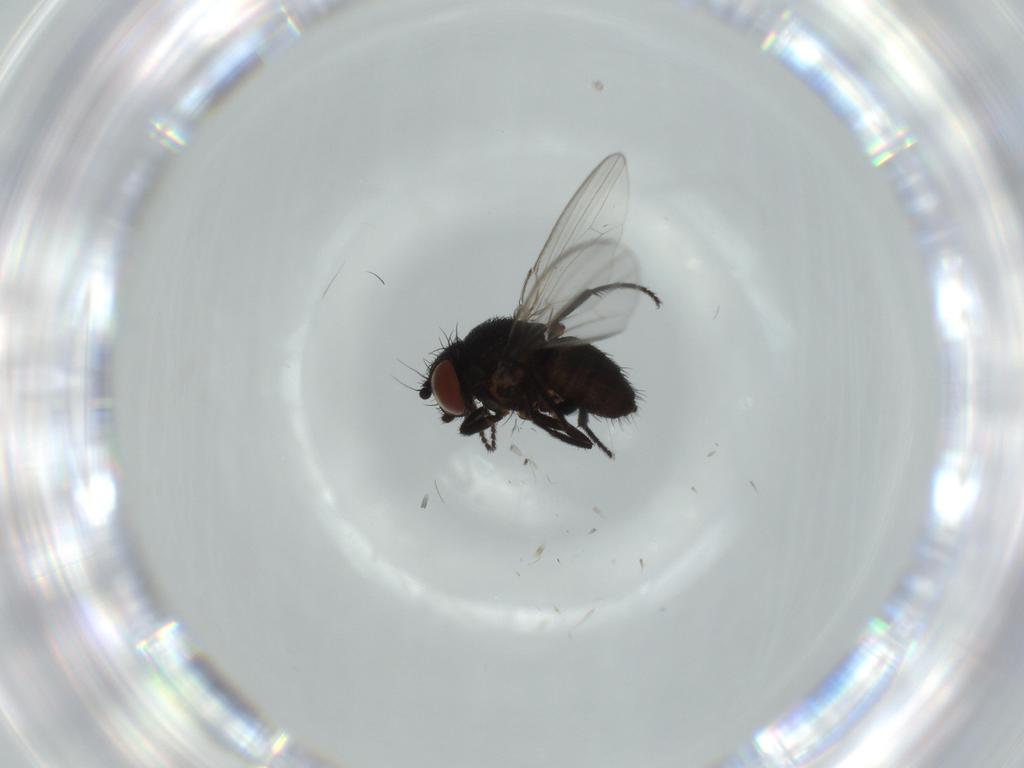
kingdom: Animalia
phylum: Arthropoda
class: Insecta
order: Diptera
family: Milichiidae
